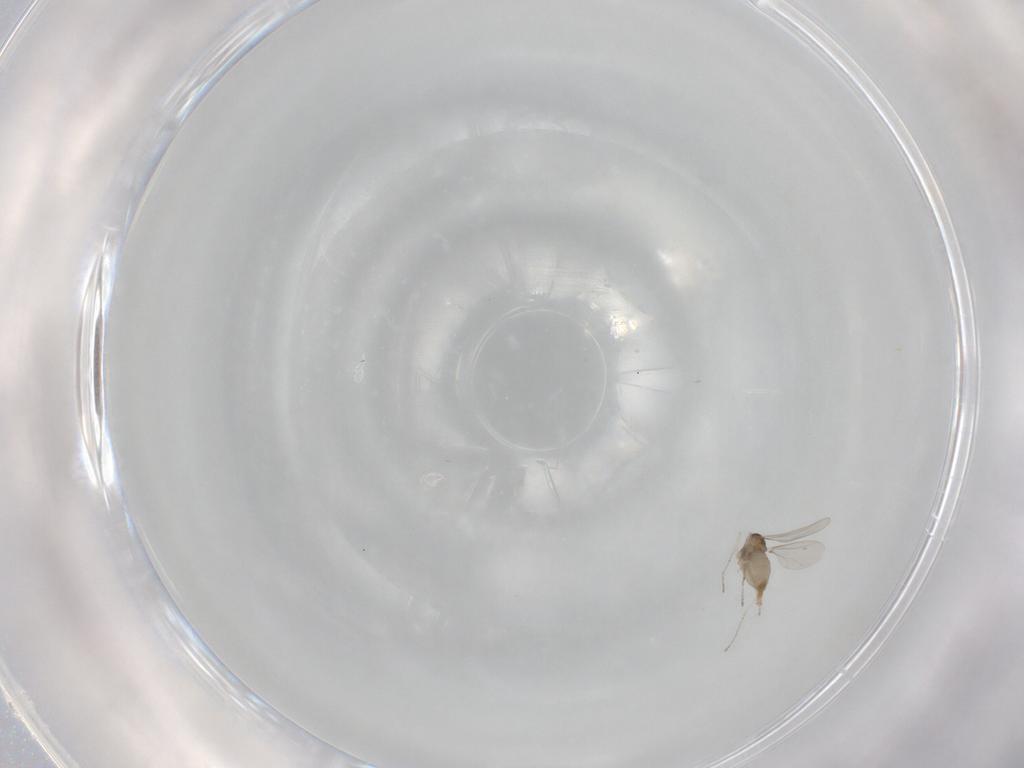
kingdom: Animalia
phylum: Arthropoda
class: Insecta
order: Diptera
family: Cecidomyiidae
